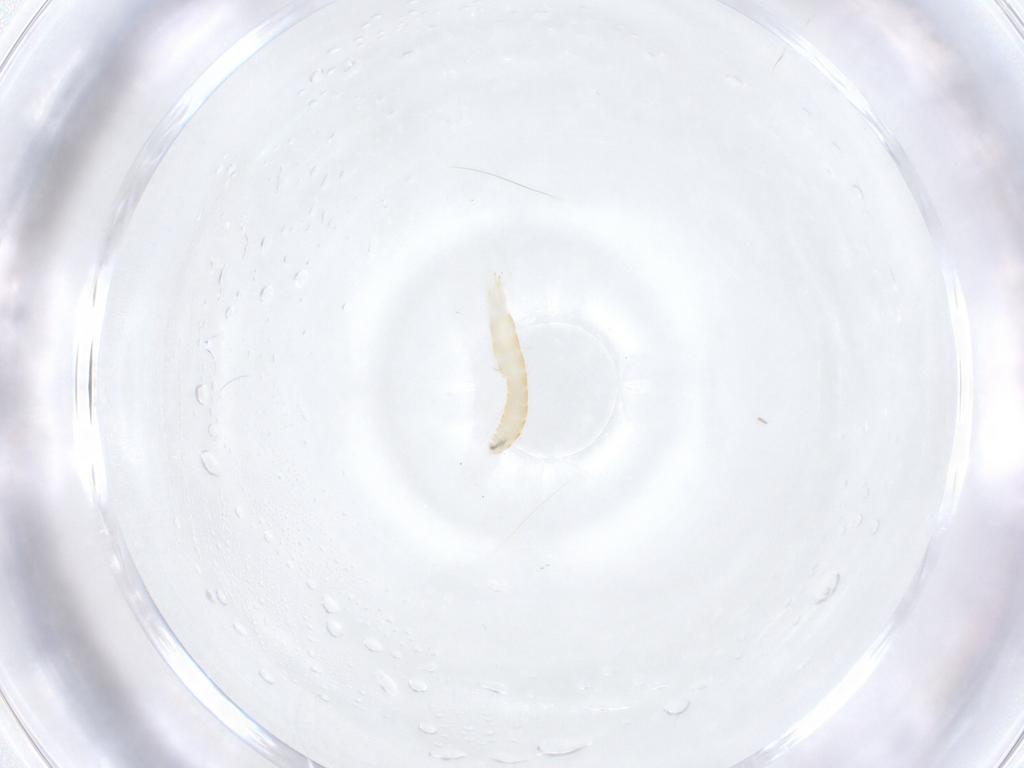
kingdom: Animalia
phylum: Arthropoda
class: Insecta
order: Diptera
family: Tachinidae
